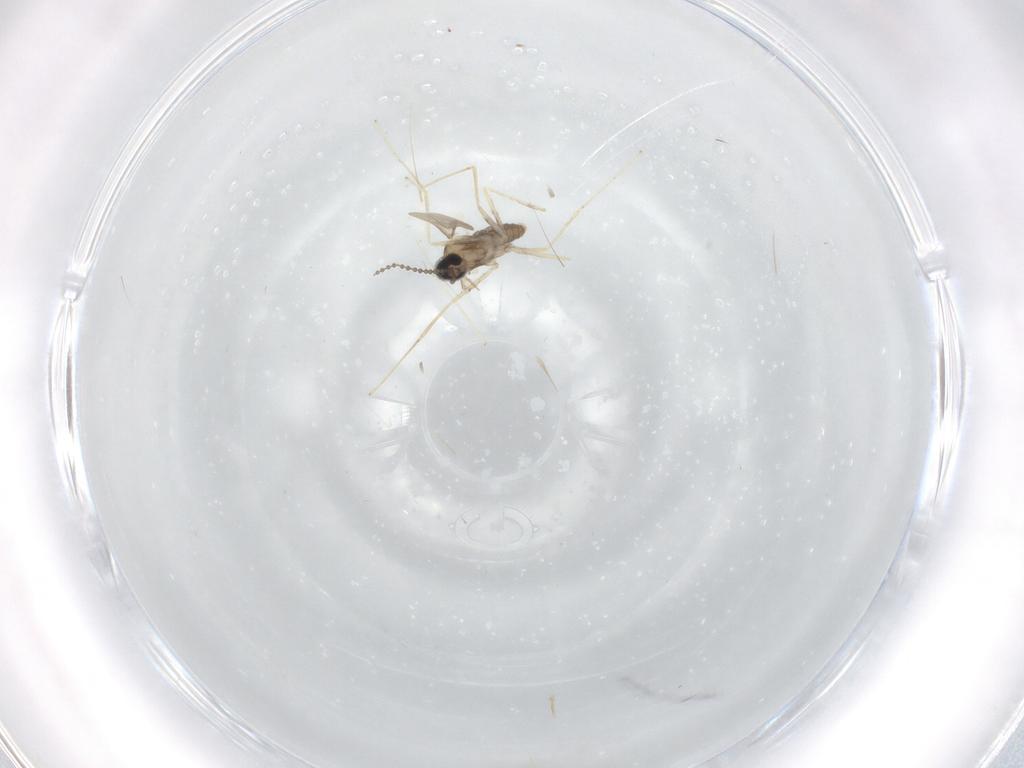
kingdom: Animalia
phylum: Arthropoda
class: Insecta
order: Diptera
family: Cecidomyiidae
